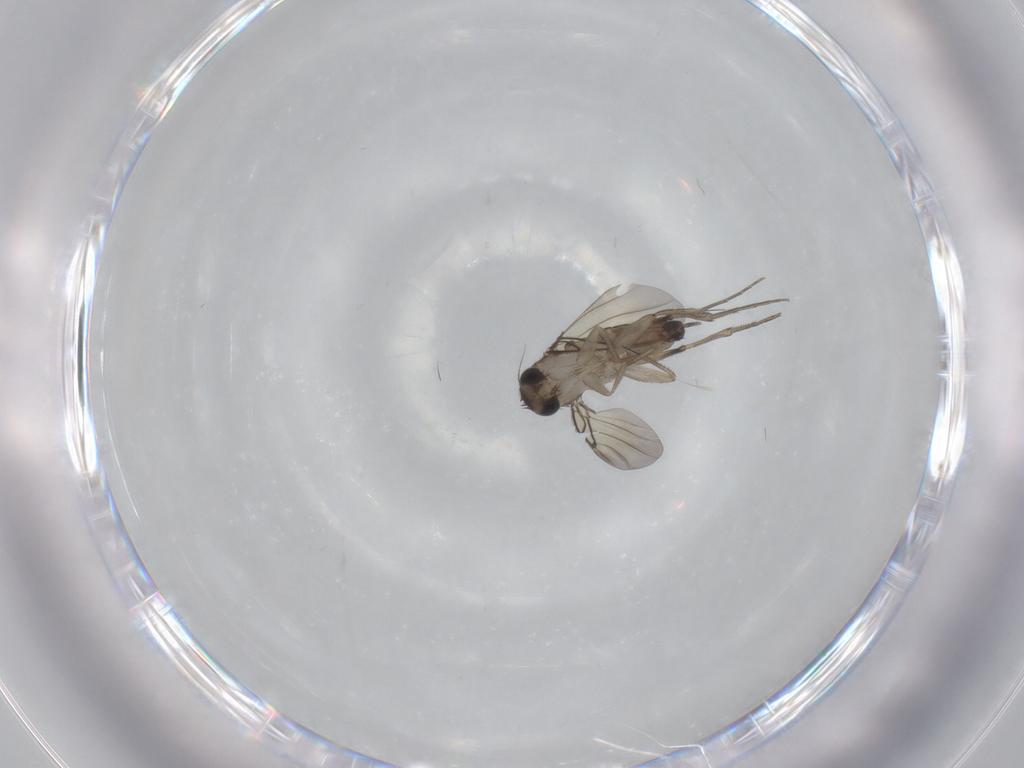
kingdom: Animalia
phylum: Arthropoda
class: Insecta
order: Diptera
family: Phoridae
